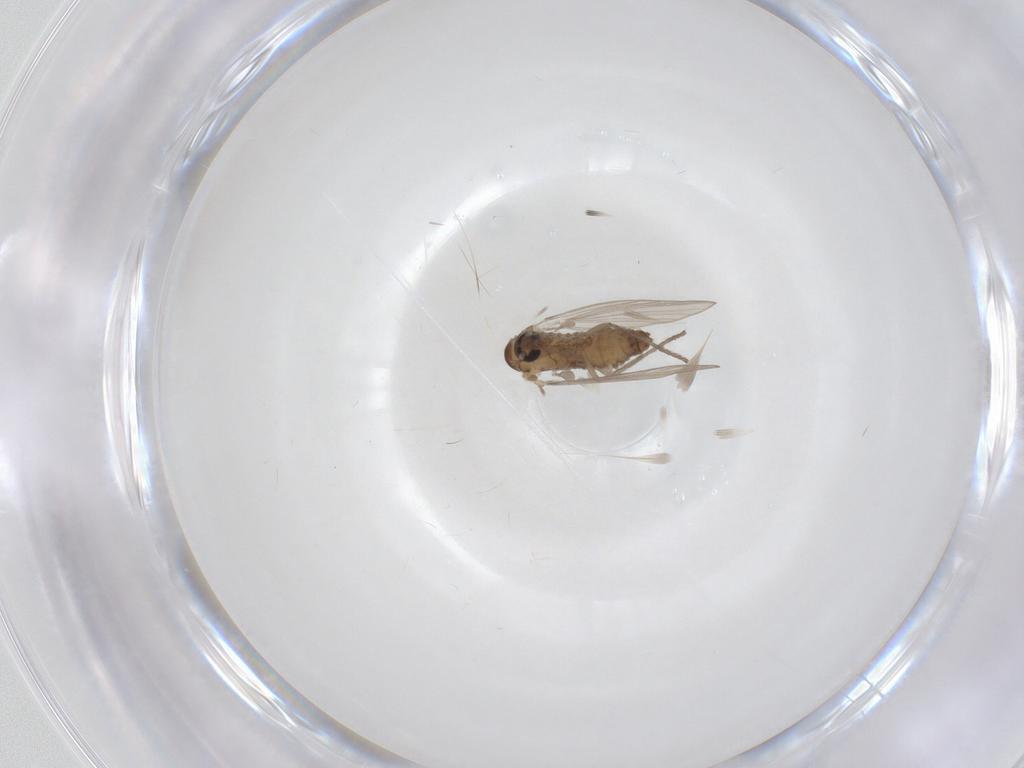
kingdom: Animalia
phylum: Arthropoda
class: Insecta
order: Diptera
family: Psychodidae
